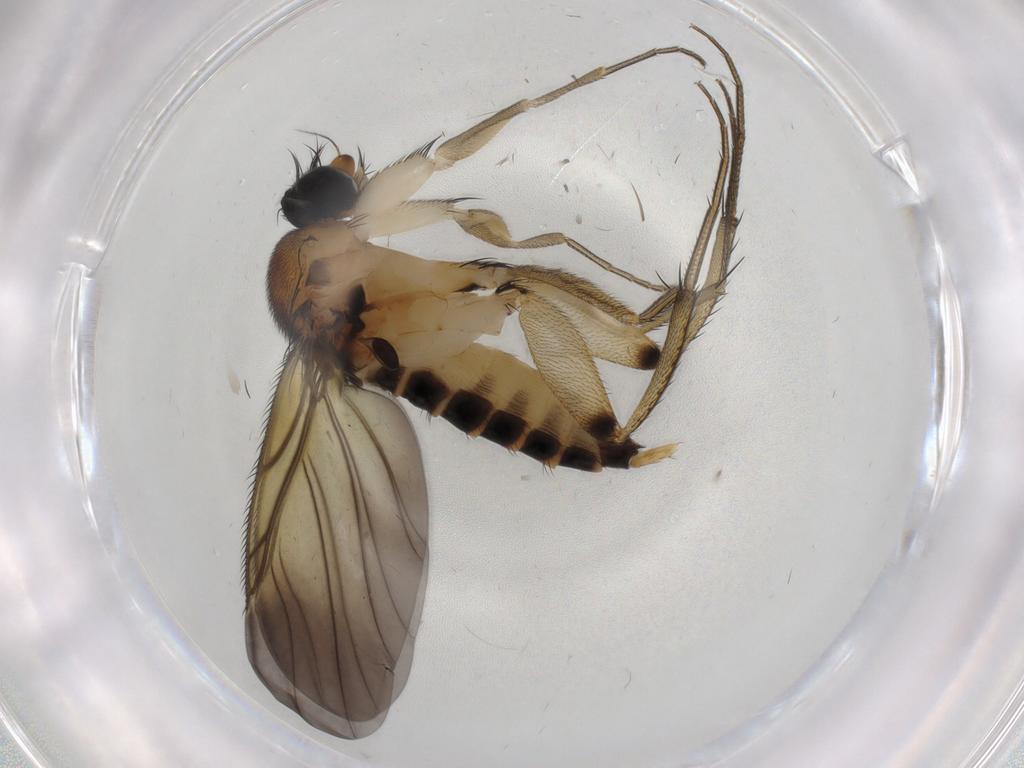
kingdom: Animalia
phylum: Arthropoda
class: Insecta
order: Diptera
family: Phoridae
